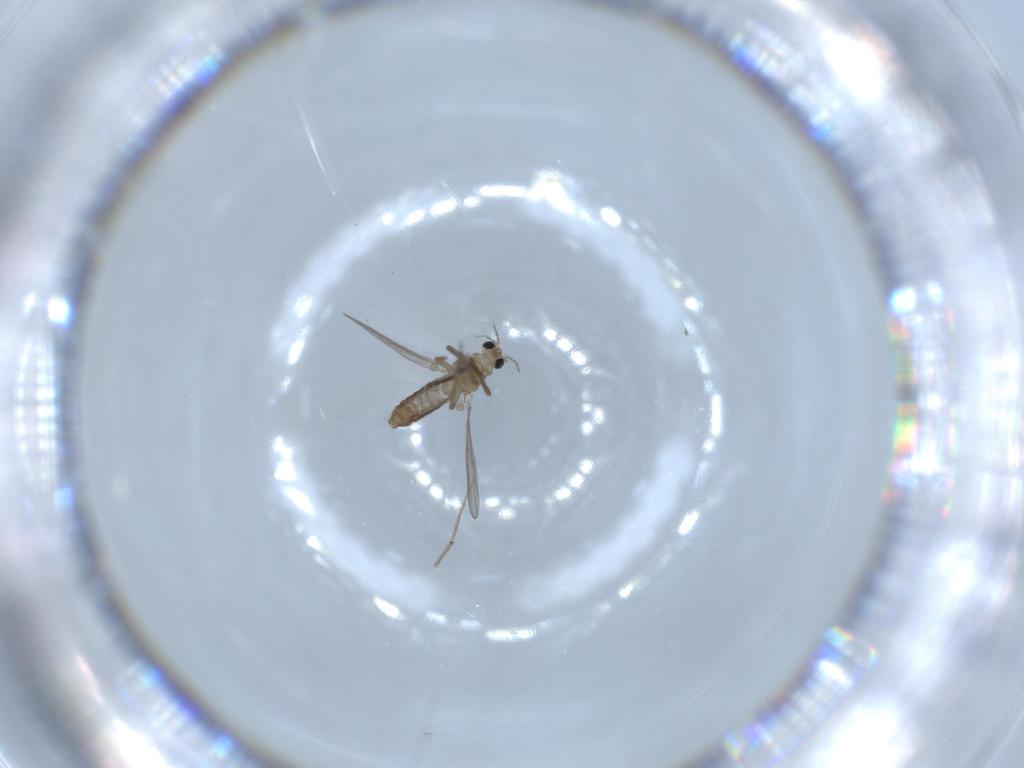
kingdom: Animalia
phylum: Arthropoda
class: Insecta
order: Diptera
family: Chironomidae
